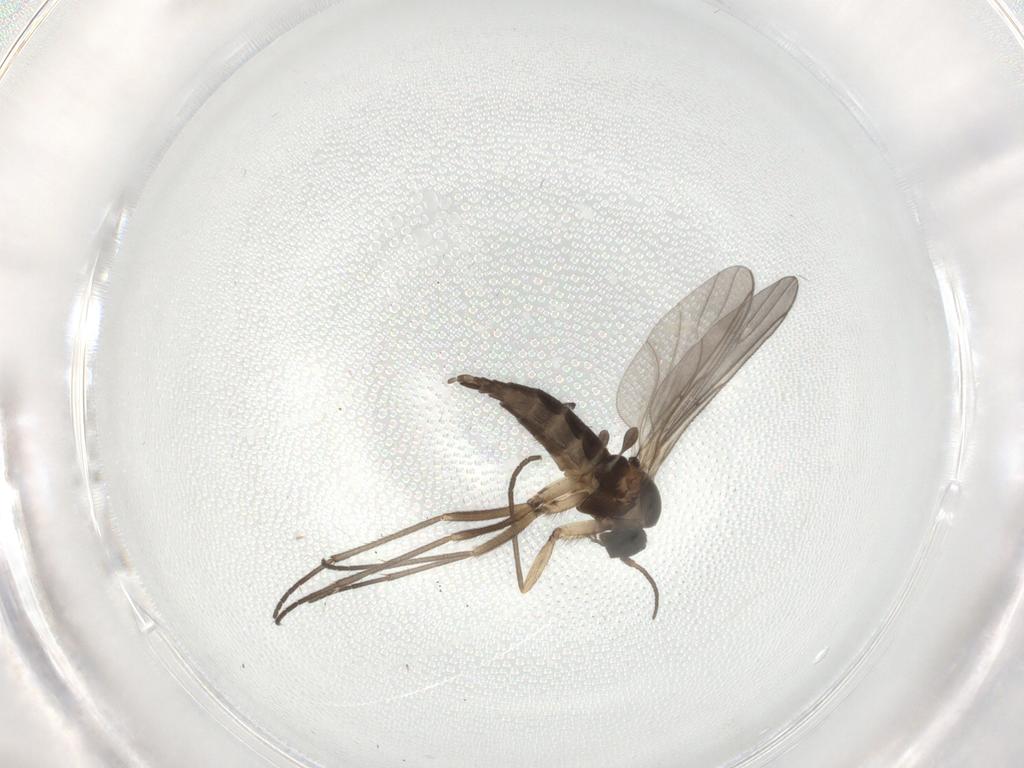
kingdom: Animalia
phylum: Arthropoda
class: Insecta
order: Diptera
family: Sciaridae
